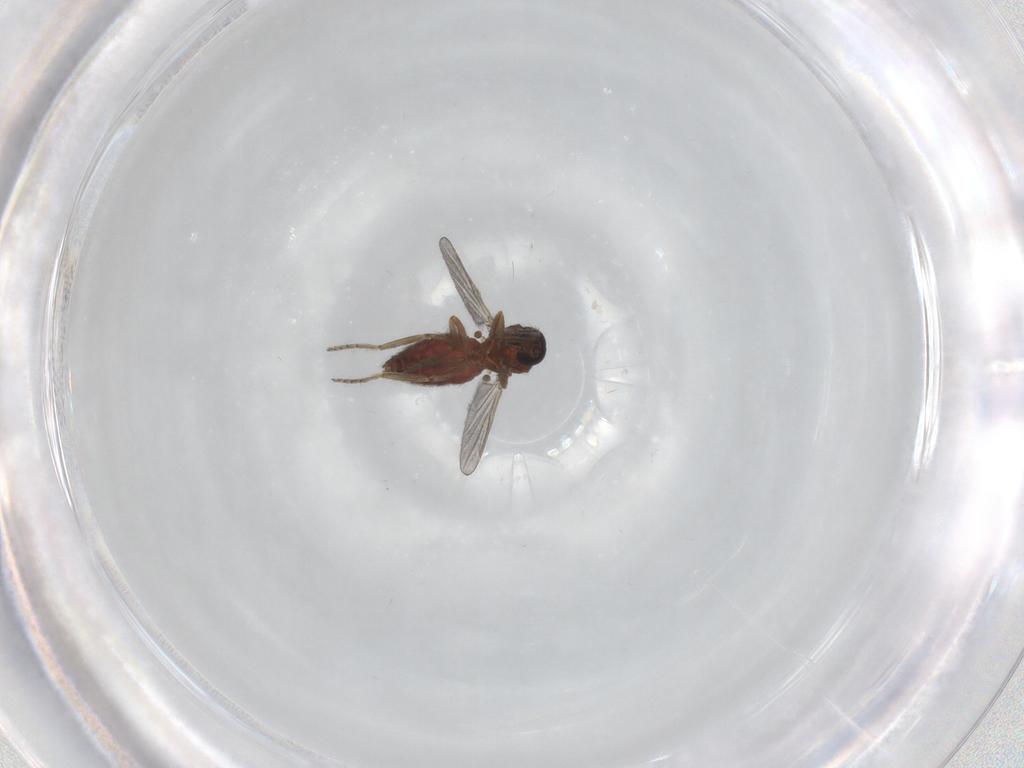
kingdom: Animalia
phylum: Arthropoda
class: Insecta
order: Diptera
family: Ceratopogonidae
